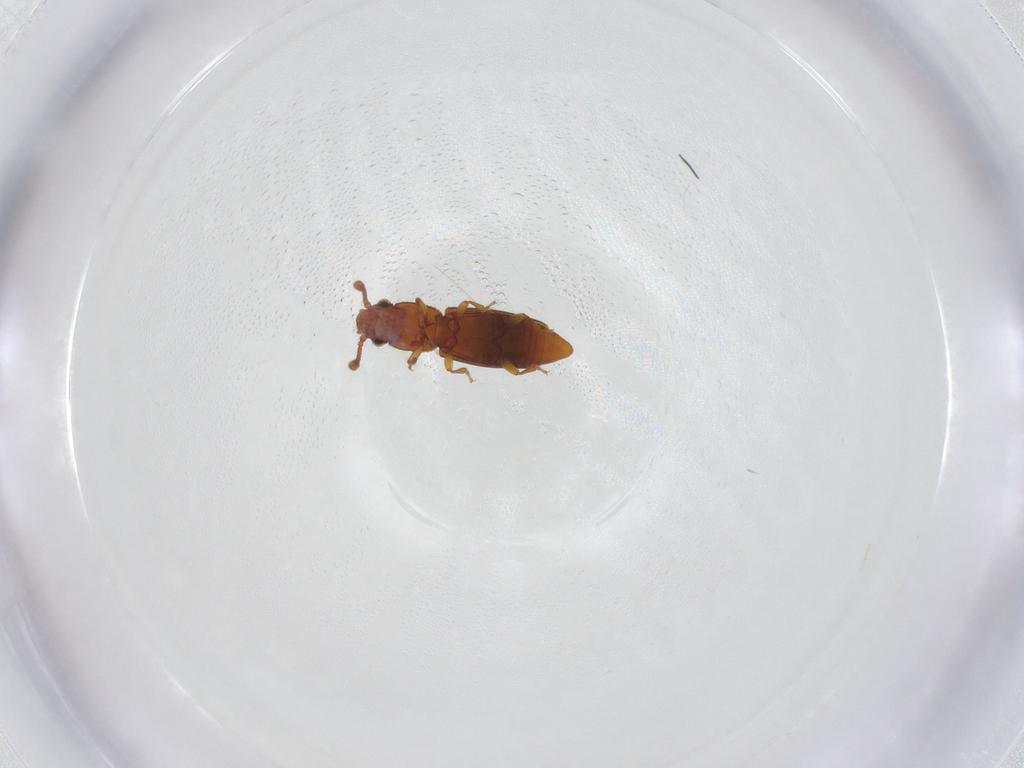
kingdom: Animalia
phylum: Arthropoda
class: Insecta
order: Coleoptera
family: Monotomidae
